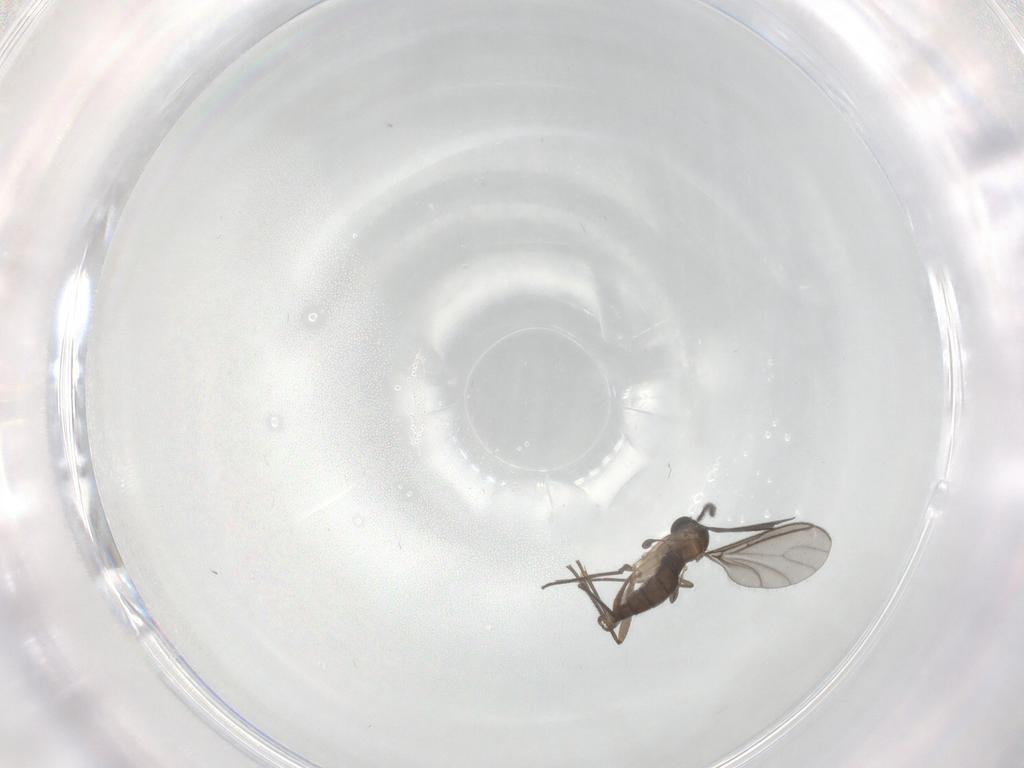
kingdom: Animalia
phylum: Arthropoda
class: Insecta
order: Diptera
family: Sciaridae
